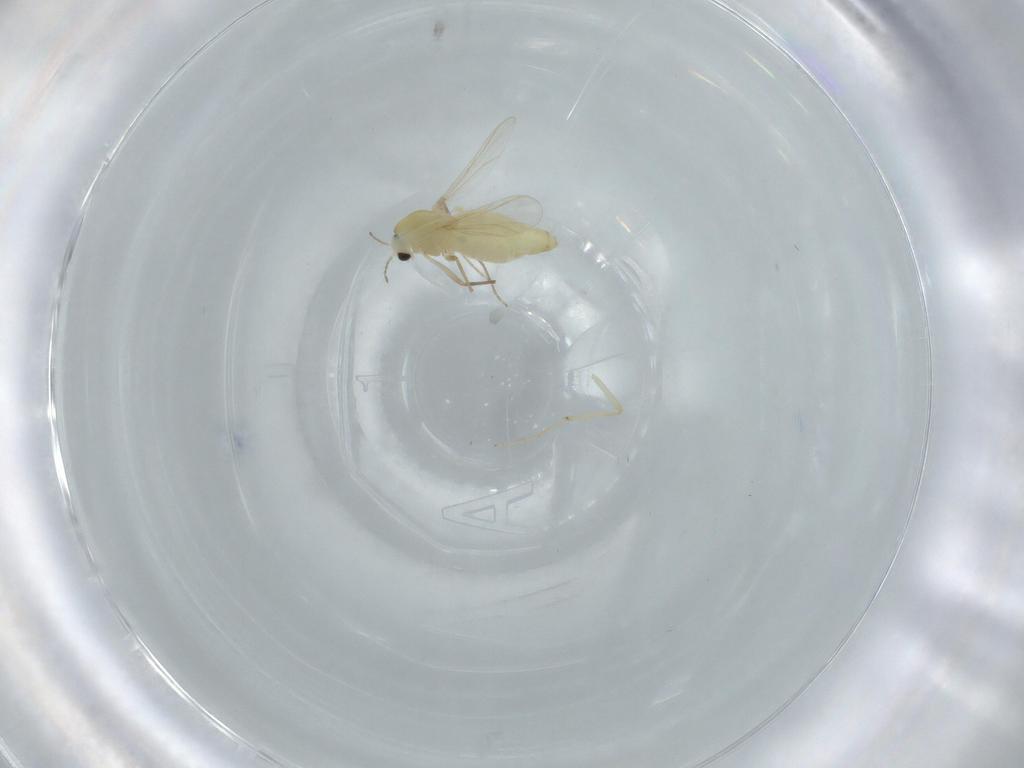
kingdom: Animalia
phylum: Arthropoda
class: Insecta
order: Diptera
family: Chironomidae
